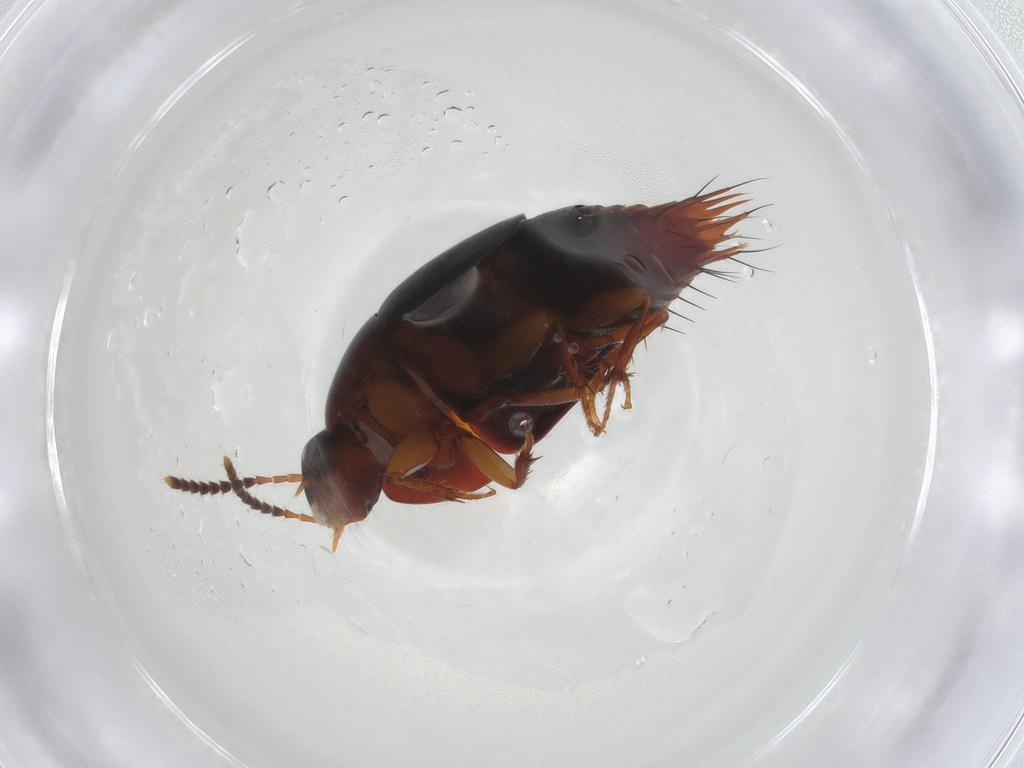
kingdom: Animalia
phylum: Arthropoda
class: Insecta
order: Coleoptera
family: Staphylinidae
